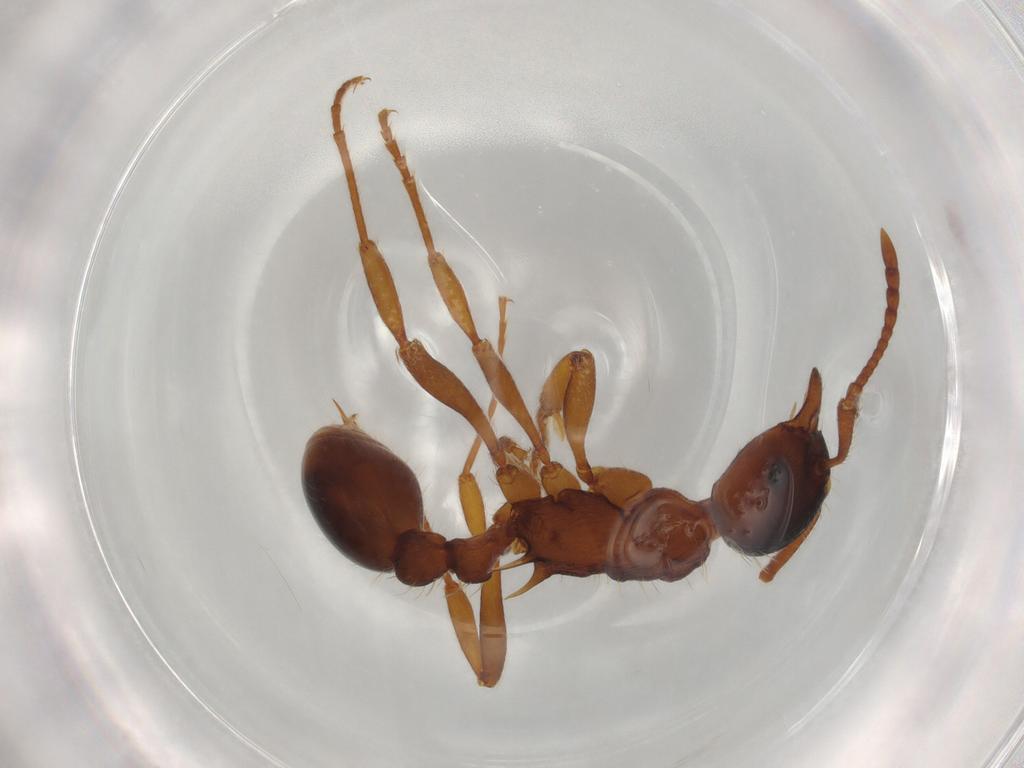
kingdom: Animalia
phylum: Arthropoda
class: Insecta
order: Hymenoptera
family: Formicidae
